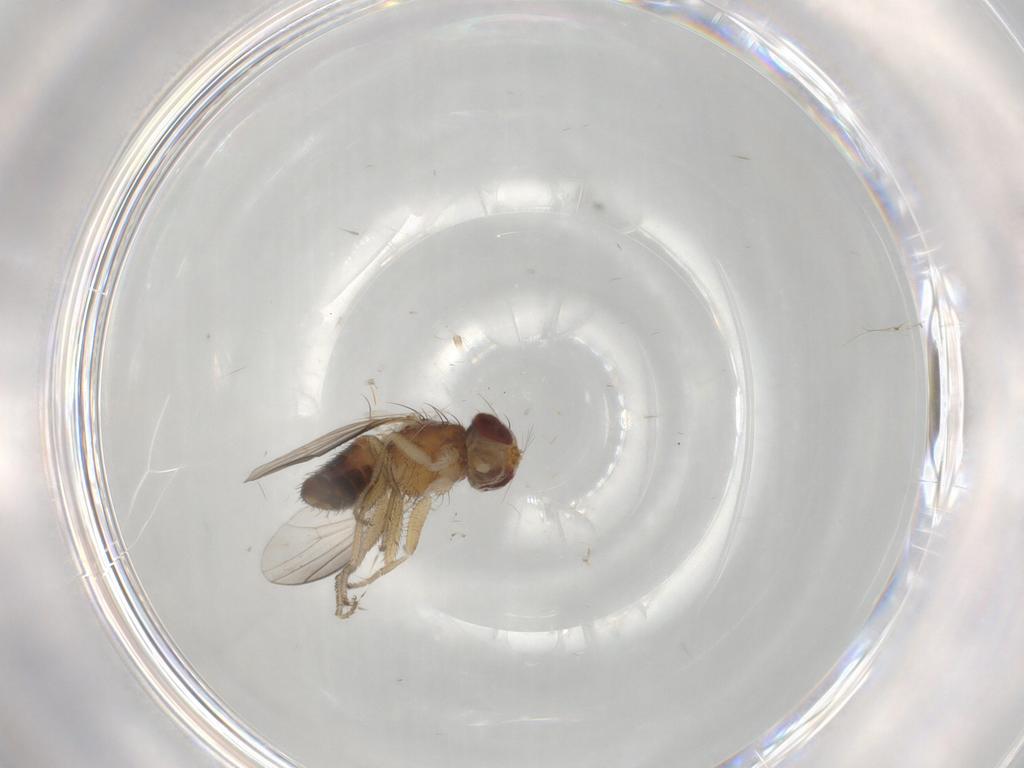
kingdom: Animalia
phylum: Arthropoda
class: Insecta
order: Diptera
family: Heleomyzidae
